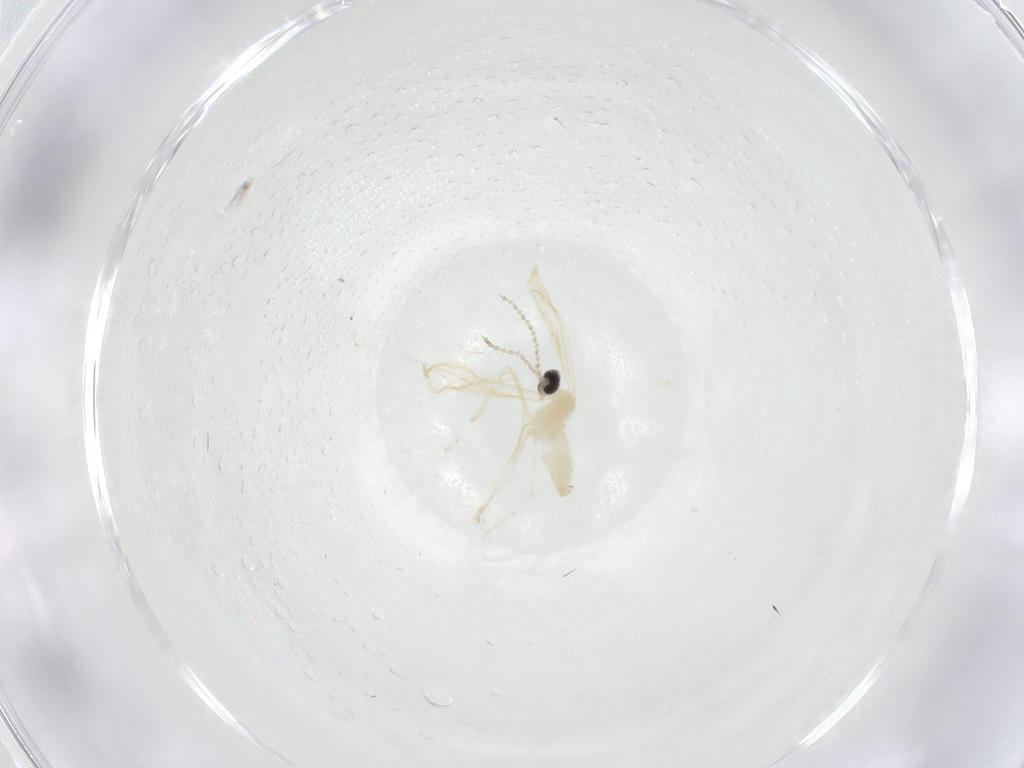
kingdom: Animalia
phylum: Arthropoda
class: Insecta
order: Diptera
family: Cecidomyiidae
